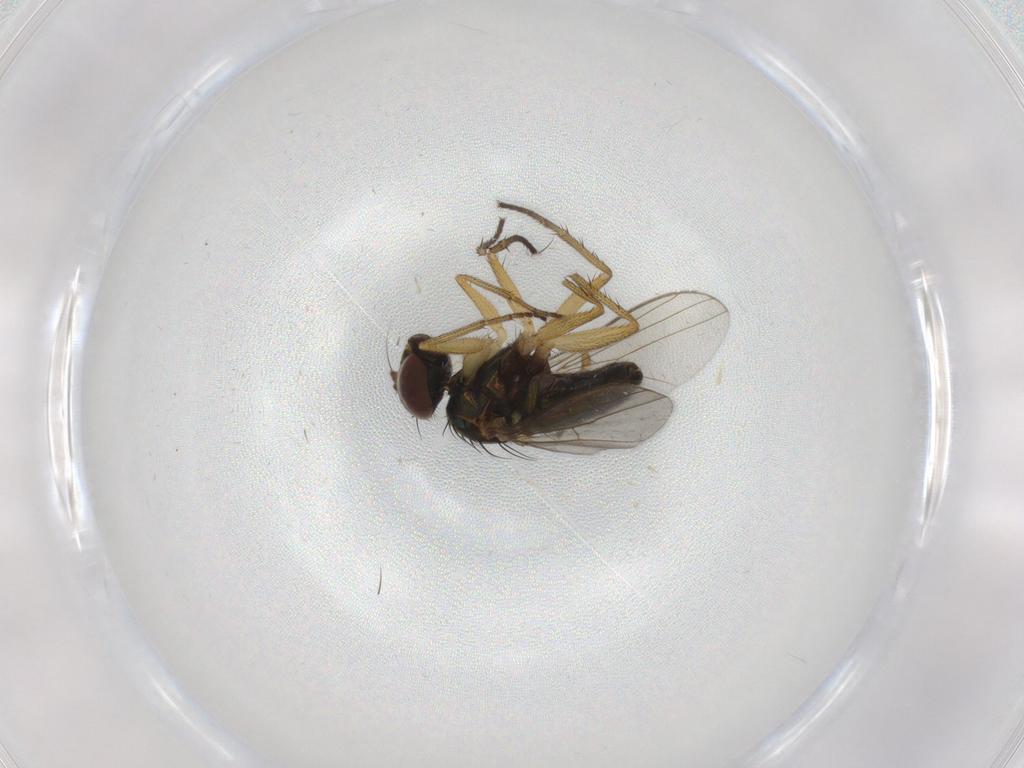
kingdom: Animalia
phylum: Arthropoda
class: Insecta
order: Diptera
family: Dolichopodidae
